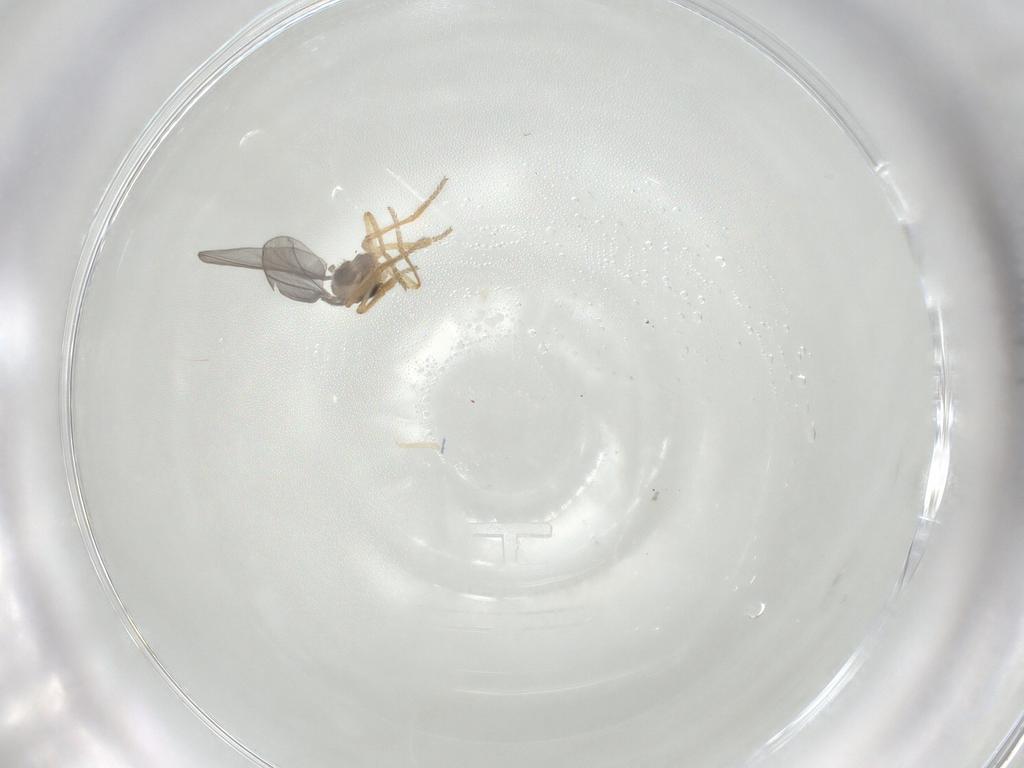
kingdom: Animalia
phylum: Arthropoda
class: Insecta
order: Diptera
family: Phoridae
